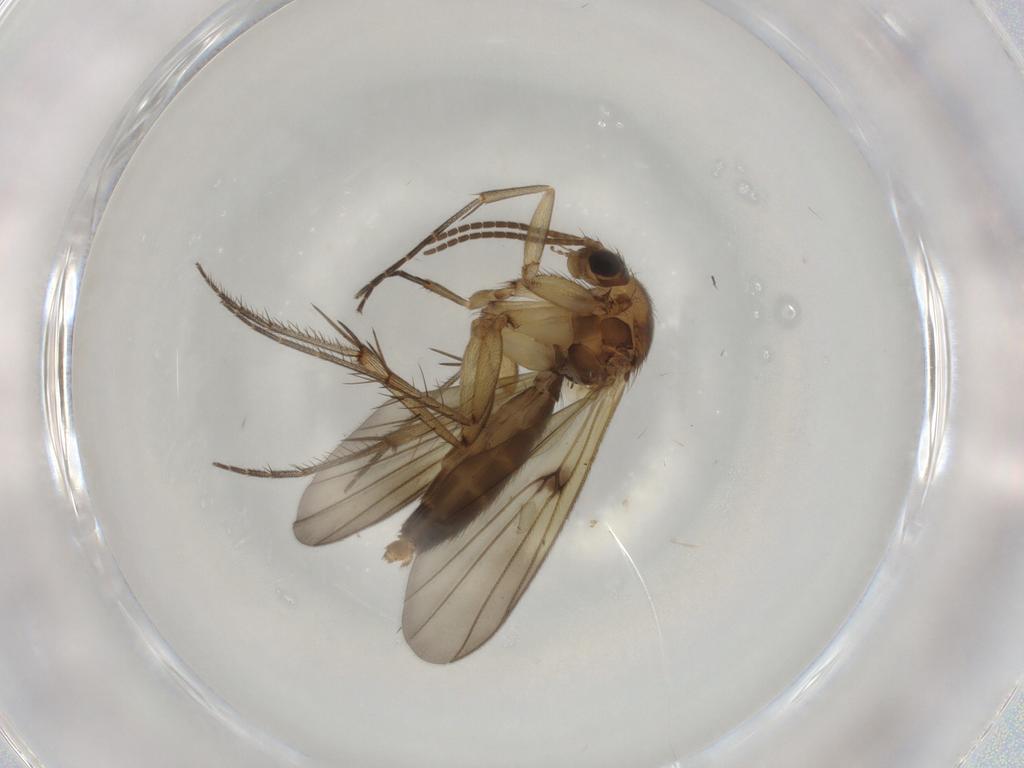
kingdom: Animalia
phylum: Arthropoda
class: Insecta
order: Diptera
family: Mycetophilidae
